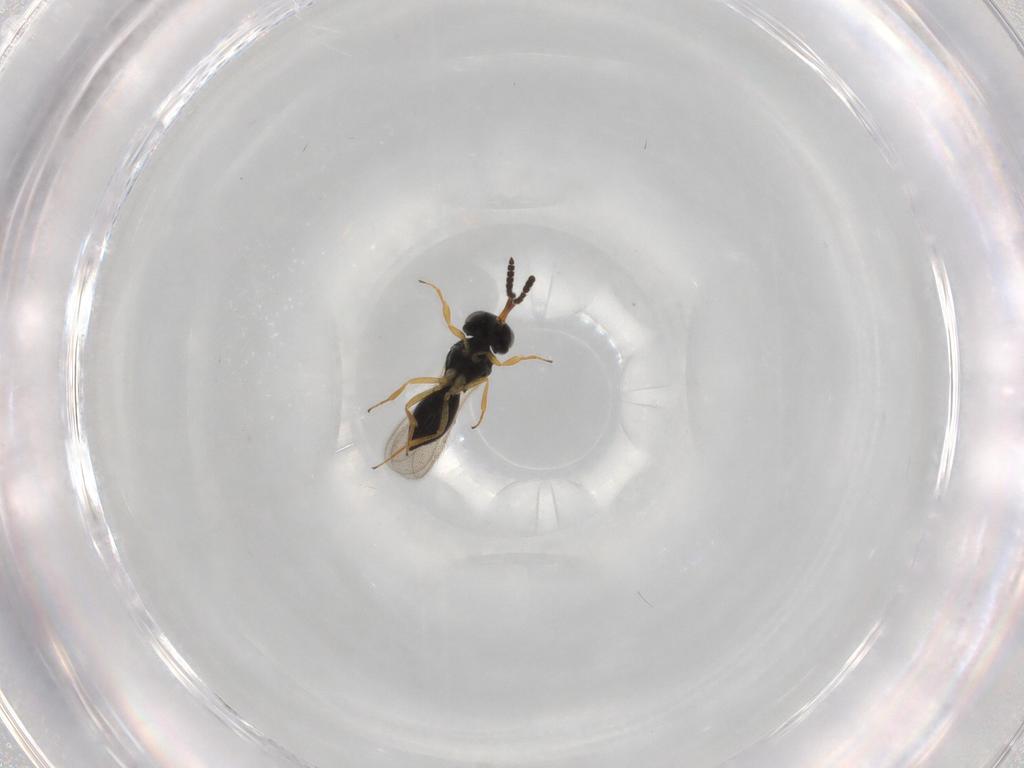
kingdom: Animalia
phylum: Arthropoda
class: Insecta
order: Hymenoptera
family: Scelionidae
